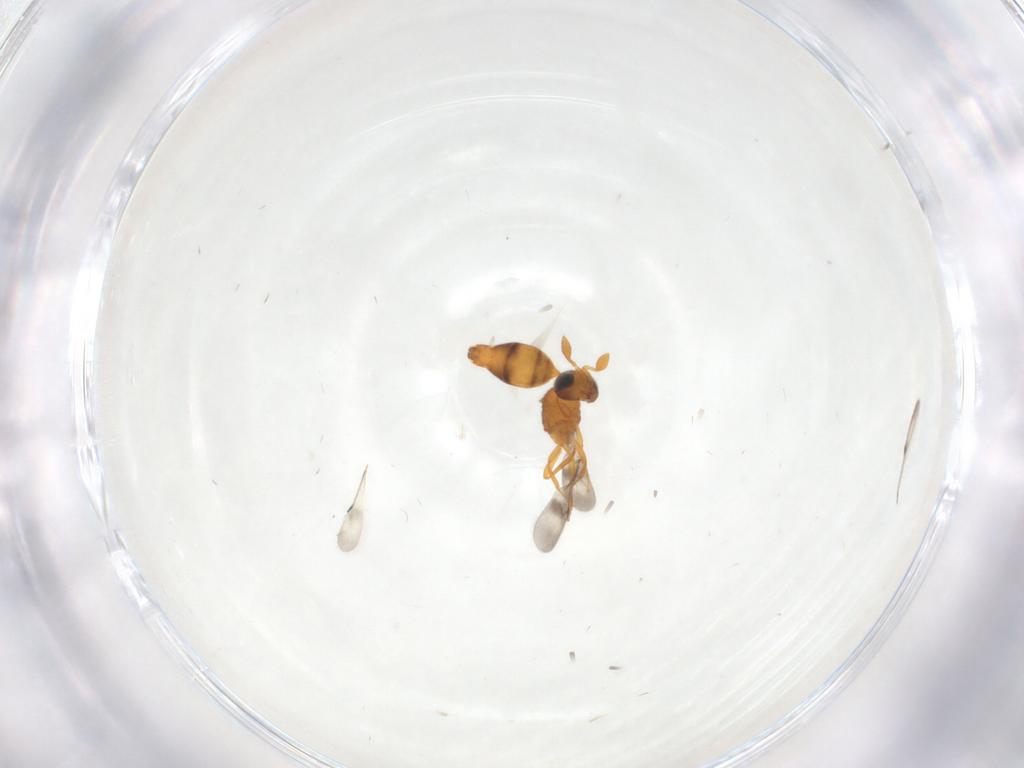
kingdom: Animalia
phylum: Arthropoda
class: Insecta
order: Hymenoptera
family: Scelionidae
